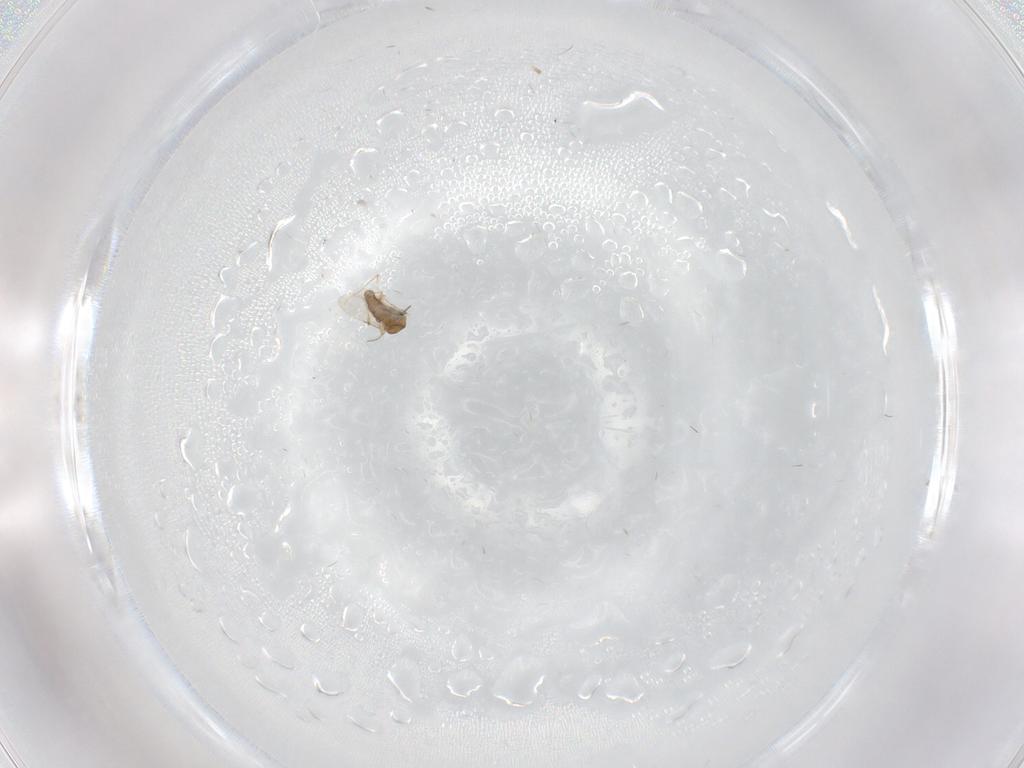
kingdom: Animalia
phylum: Arthropoda
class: Insecta
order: Diptera
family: Ceratopogonidae
